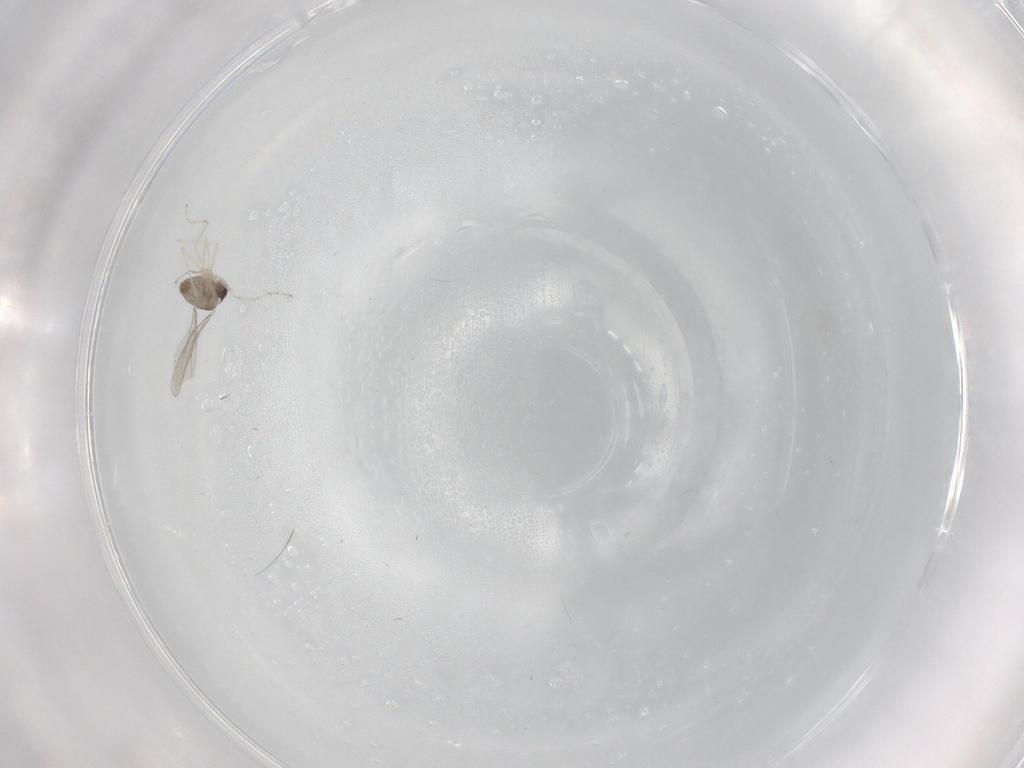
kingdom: Animalia
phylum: Arthropoda
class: Insecta
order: Diptera
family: Cecidomyiidae
